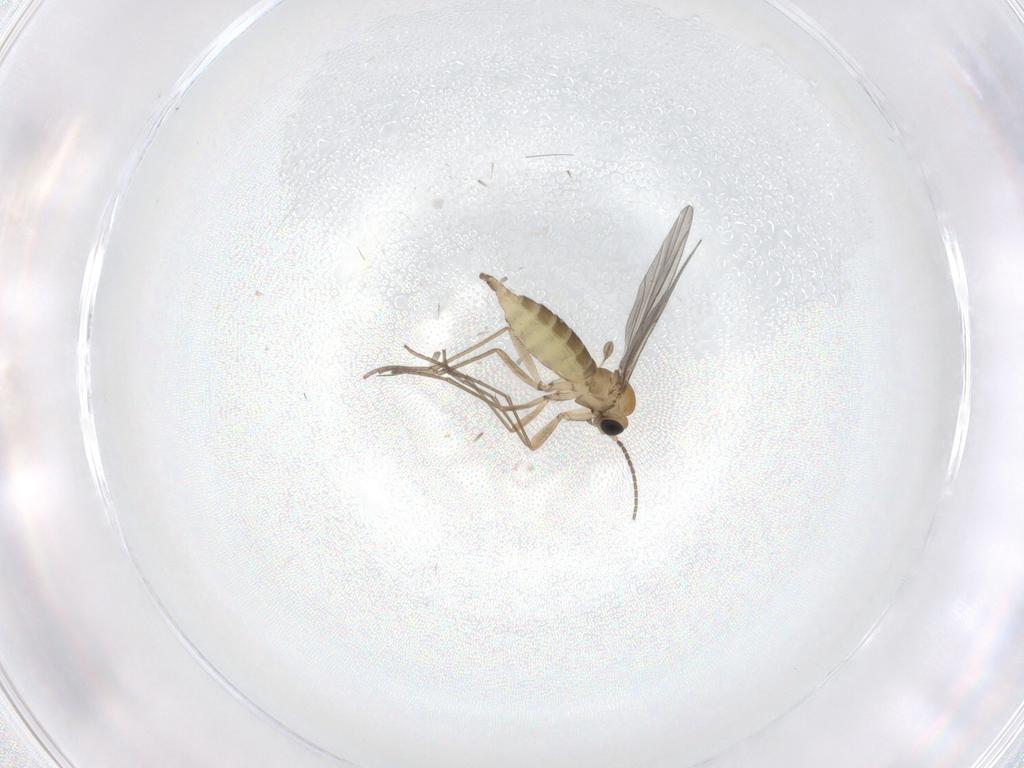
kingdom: Animalia
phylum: Arthropoda
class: Insecta
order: Diptera
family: Sciaridae
